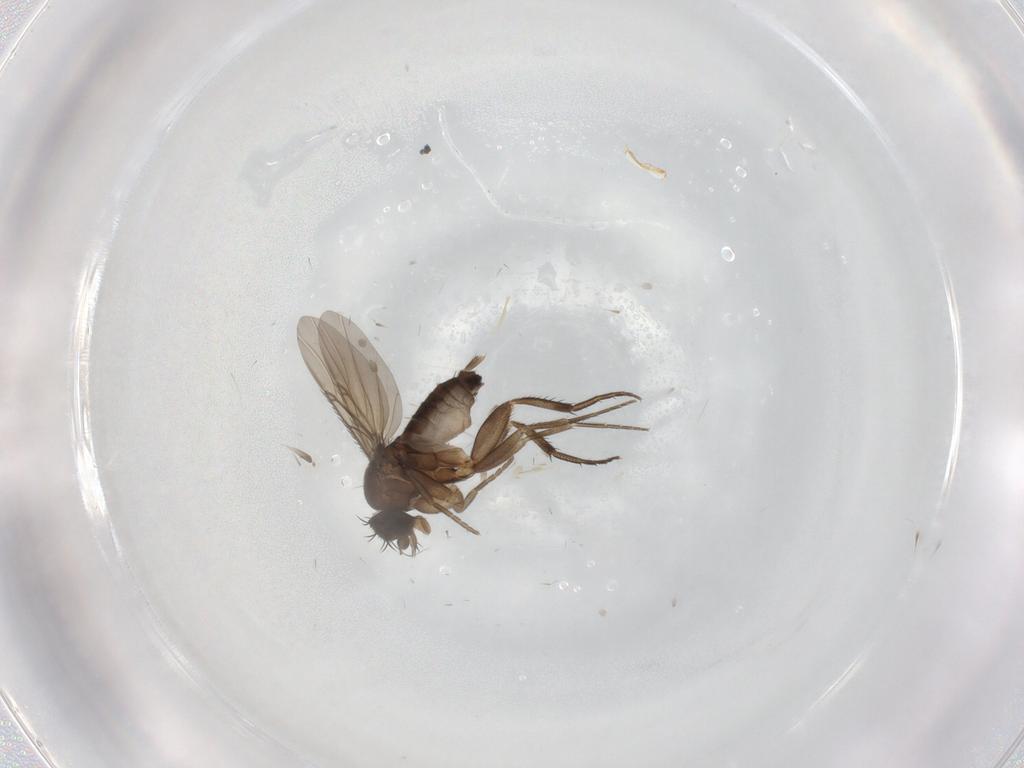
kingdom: Animalia
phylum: Arthropoda
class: Insecta
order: Diptera
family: Phoridae
